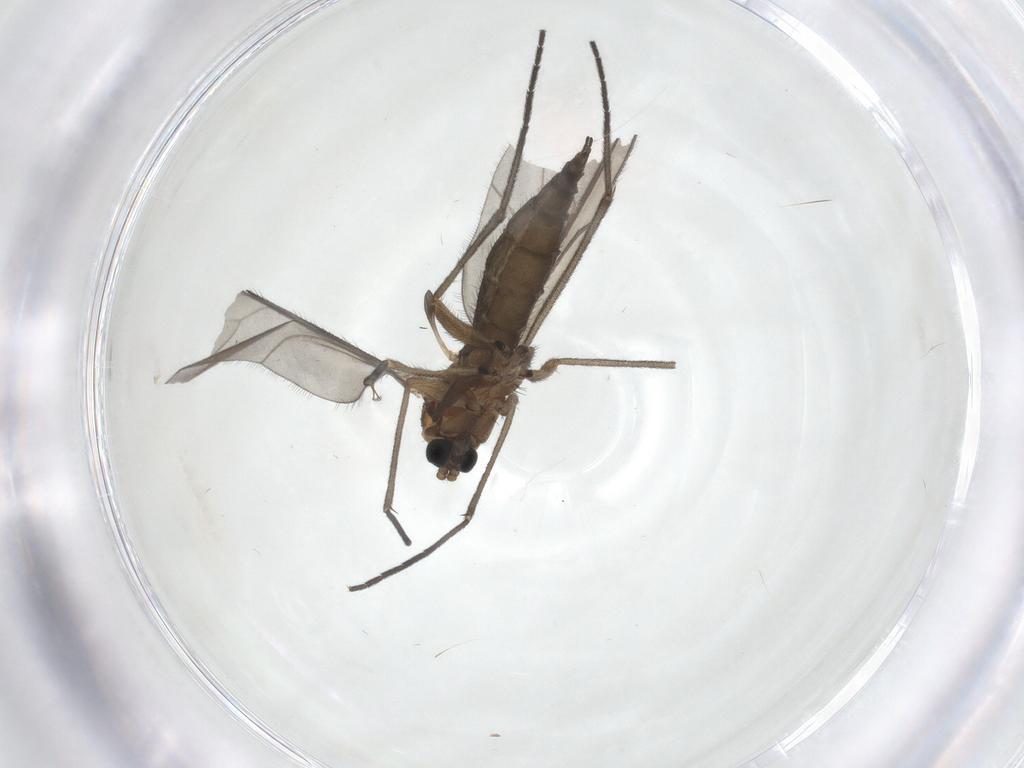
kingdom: Animalia
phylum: Arthropoda
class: Insecta
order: Diptera
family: Sciaridae
